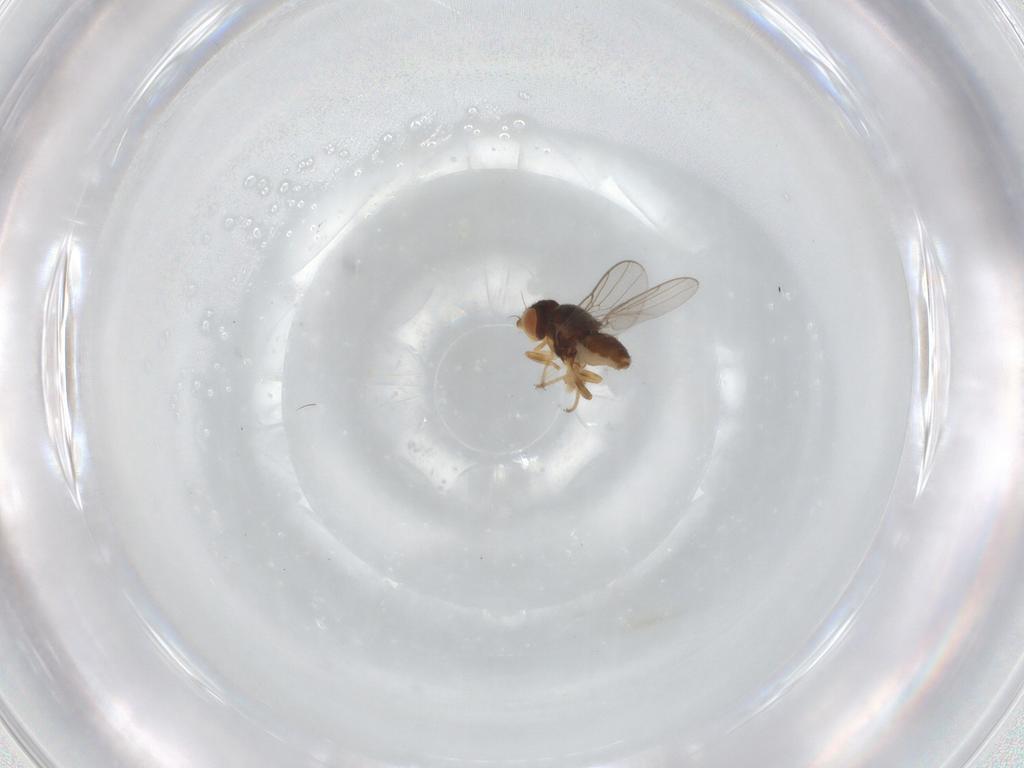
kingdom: Animalia
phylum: Arthropoda
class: Insecta
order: Diptera
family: Chloropidae
